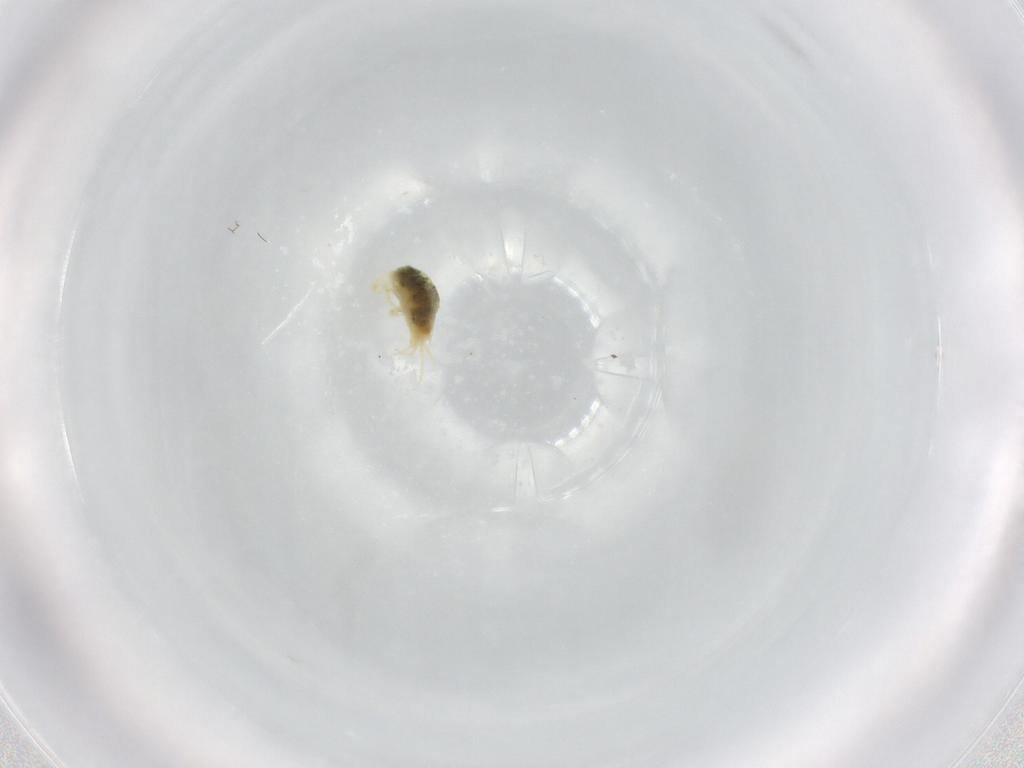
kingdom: Animalia
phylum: Arthropoda
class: Arachnida
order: Trombidiformes
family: Tetranychidae
